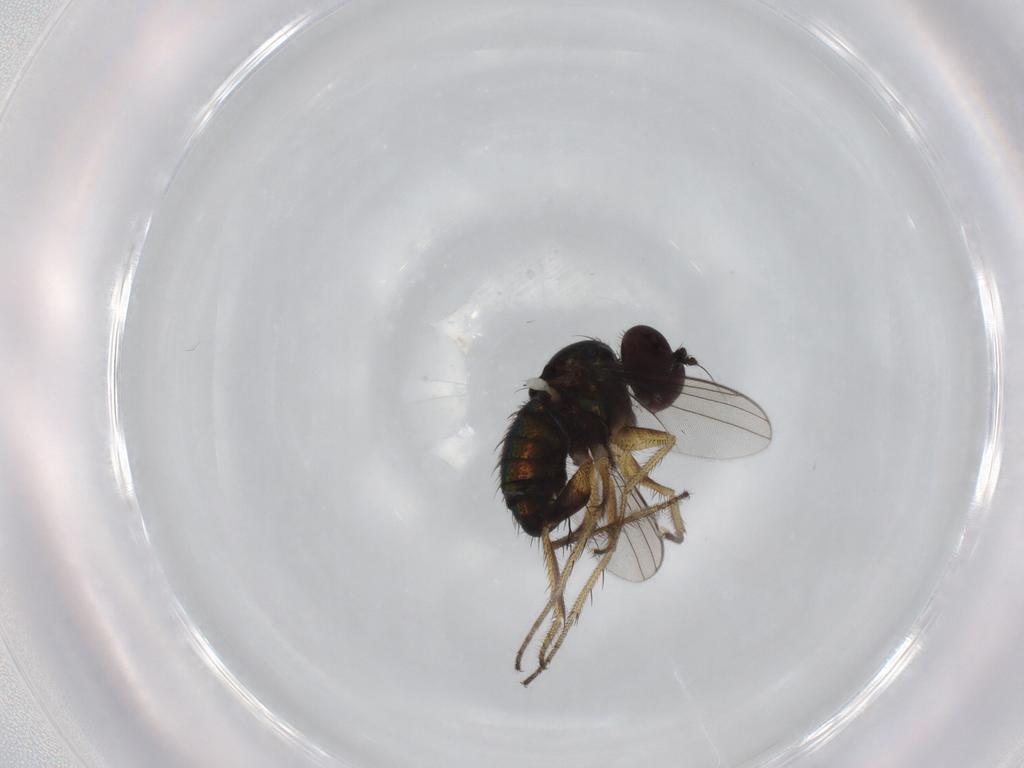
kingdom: Animalia
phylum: Arthropoda
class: Insecta
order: Diptera
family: Dolichopodidae
